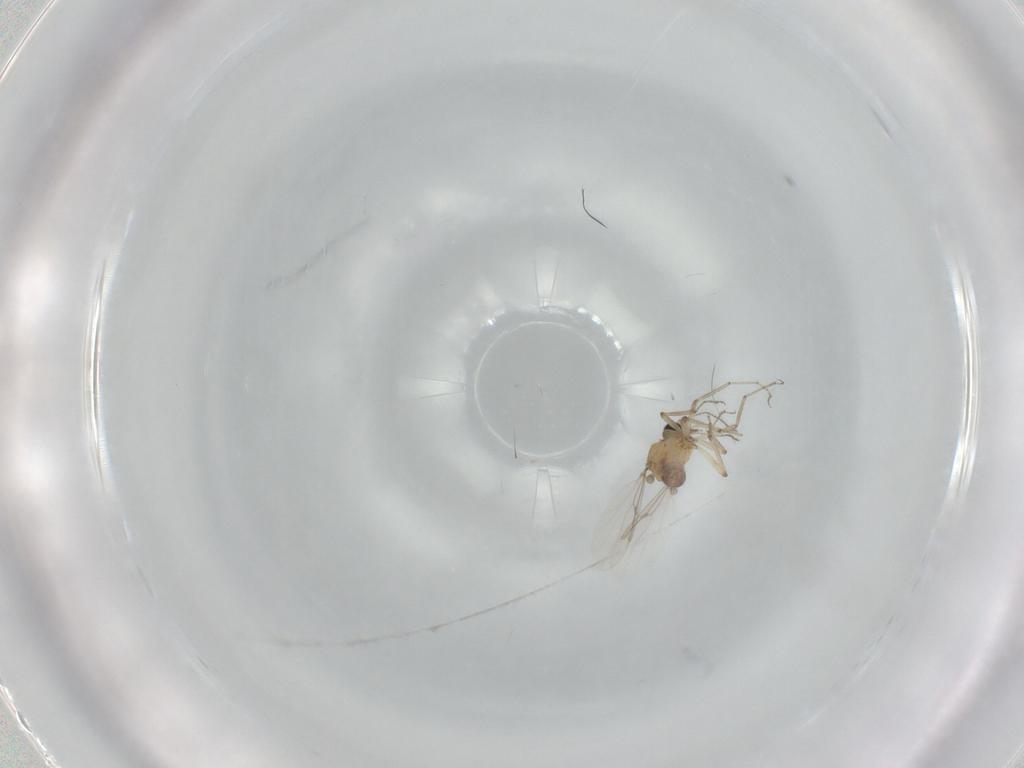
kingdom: Animalia
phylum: Arthropoda
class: Insecta
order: Diptera
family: Ceratopogonidae
